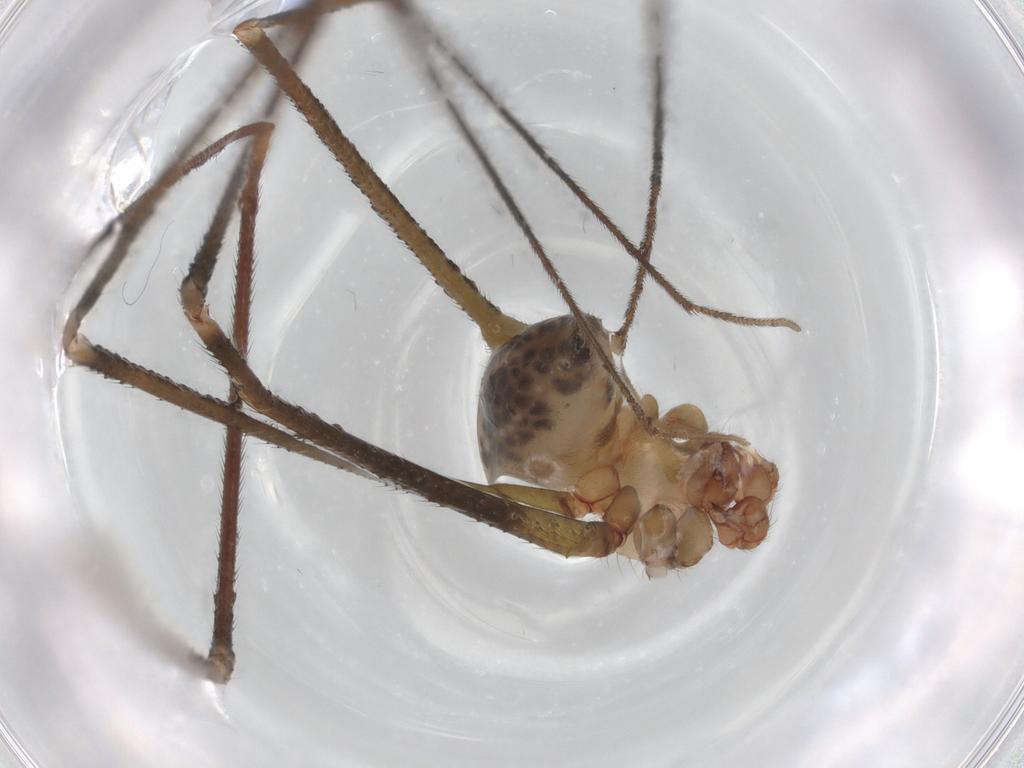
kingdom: Animalia
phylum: Arthropoda
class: Arachnida
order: Araneae
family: Pholcidae
